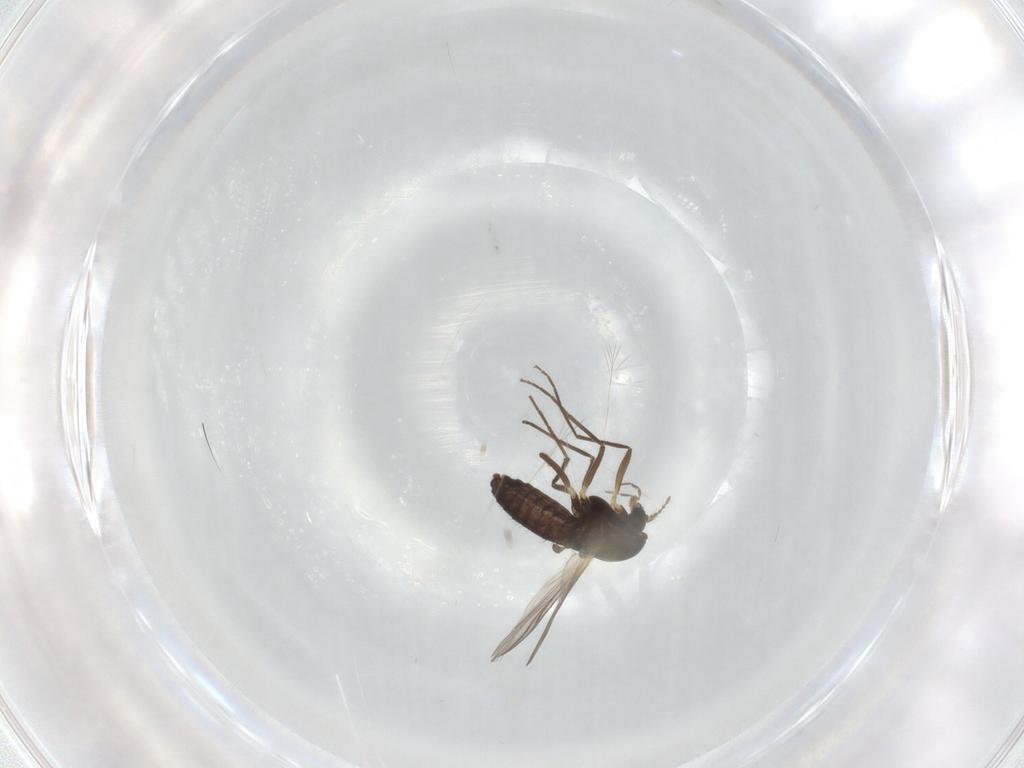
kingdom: Animalia
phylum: Arthropoda
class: Insecta
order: Diptera
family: Chironomidae
